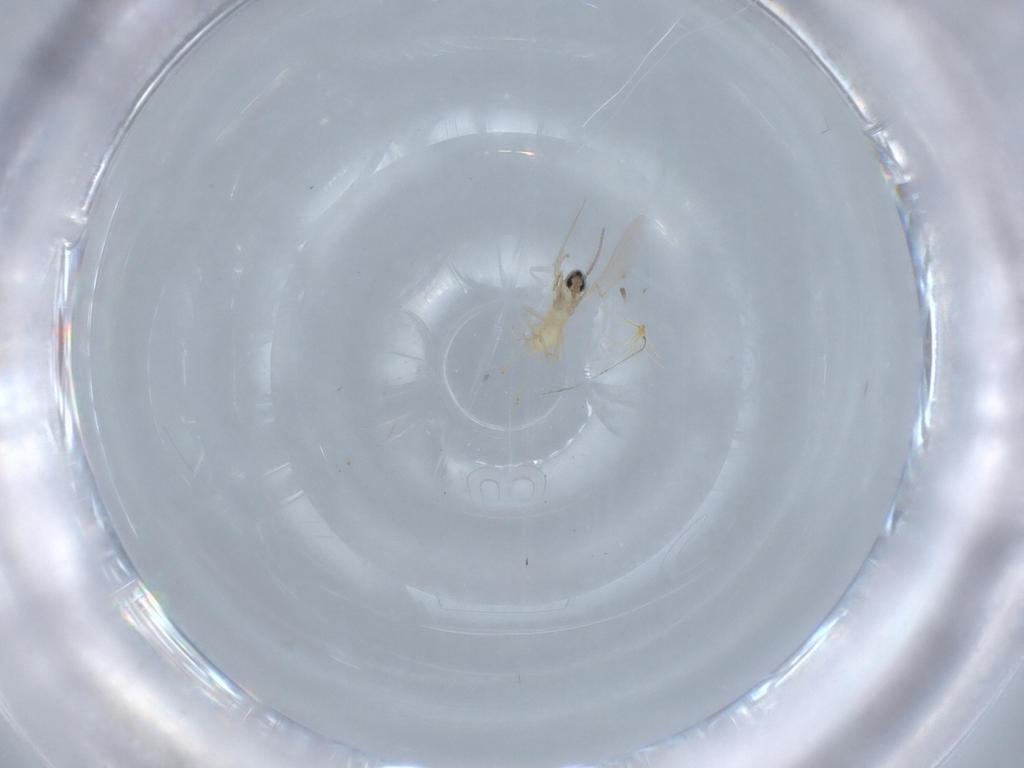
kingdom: Animalia
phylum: Arthropoda
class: Insecta
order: Diptera
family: Cecidomyiidae
